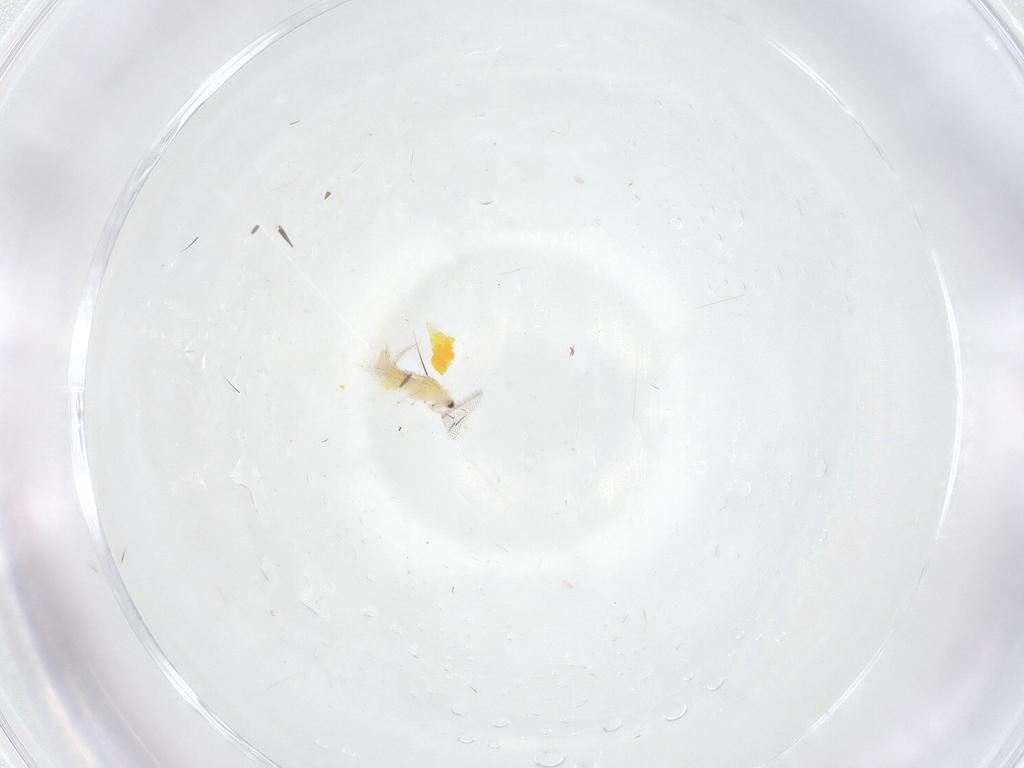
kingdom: Animalia
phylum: Arthropoda
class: Insecta
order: Hemiptera
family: Aleyrodidae
